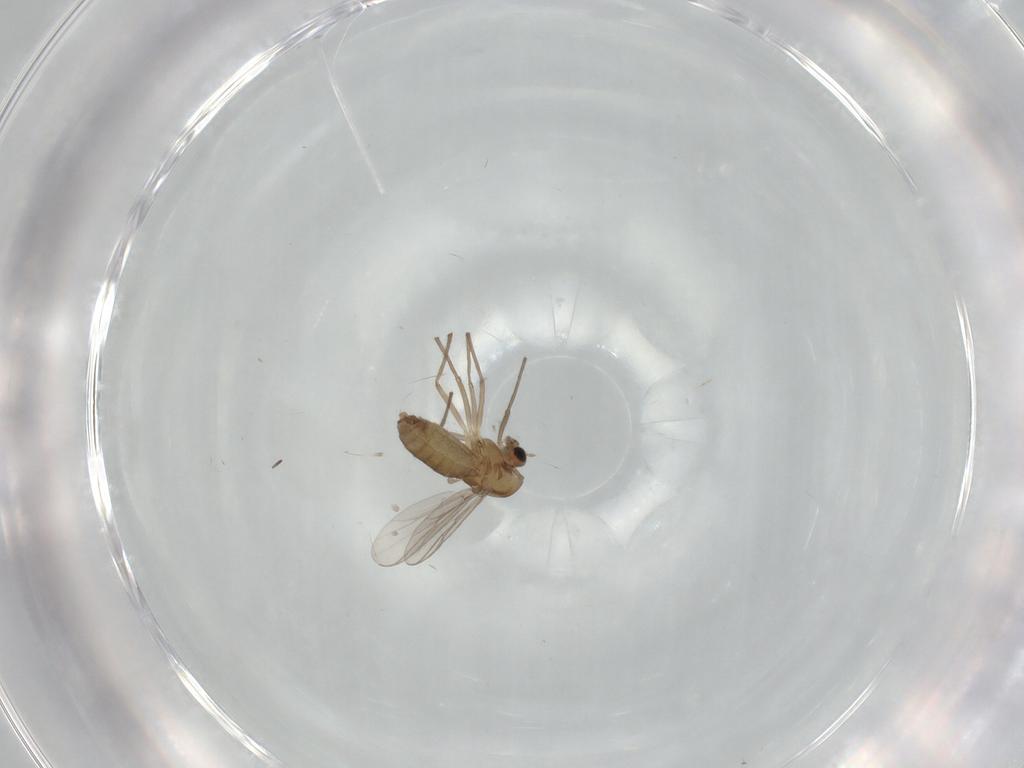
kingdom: Animalia
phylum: Arthropoda
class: Insecta
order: Diptera
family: Chironomidae
